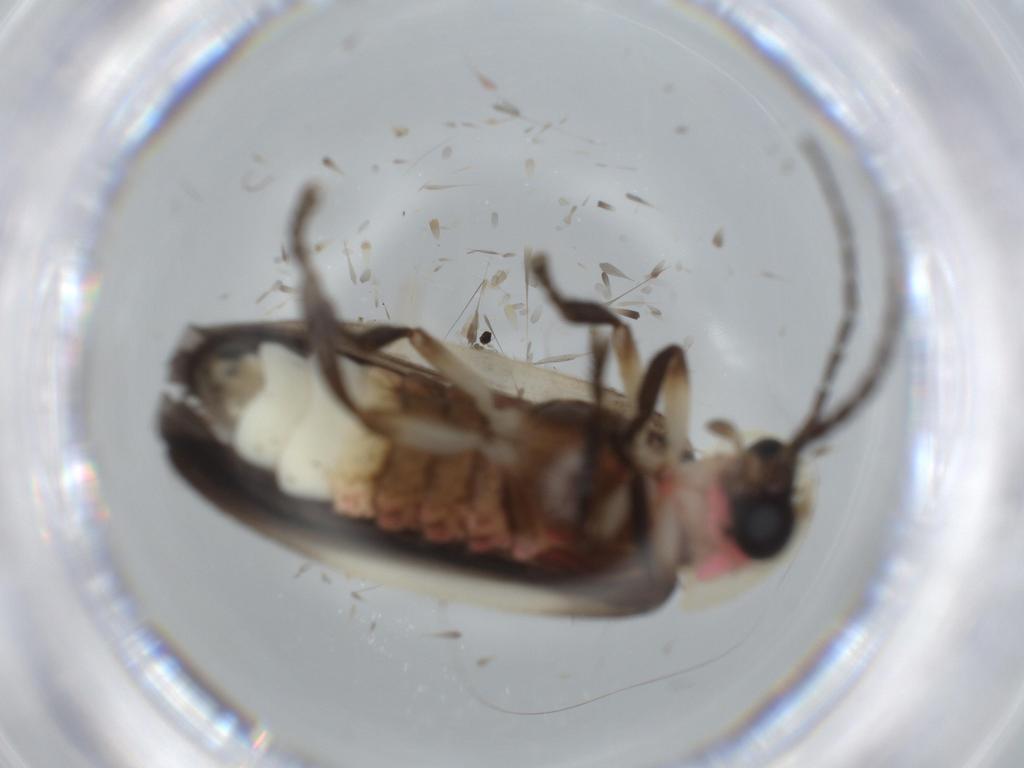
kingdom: Animalia
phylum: Arthropoda
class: Insecta
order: Coleoptera
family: Lampyridae
